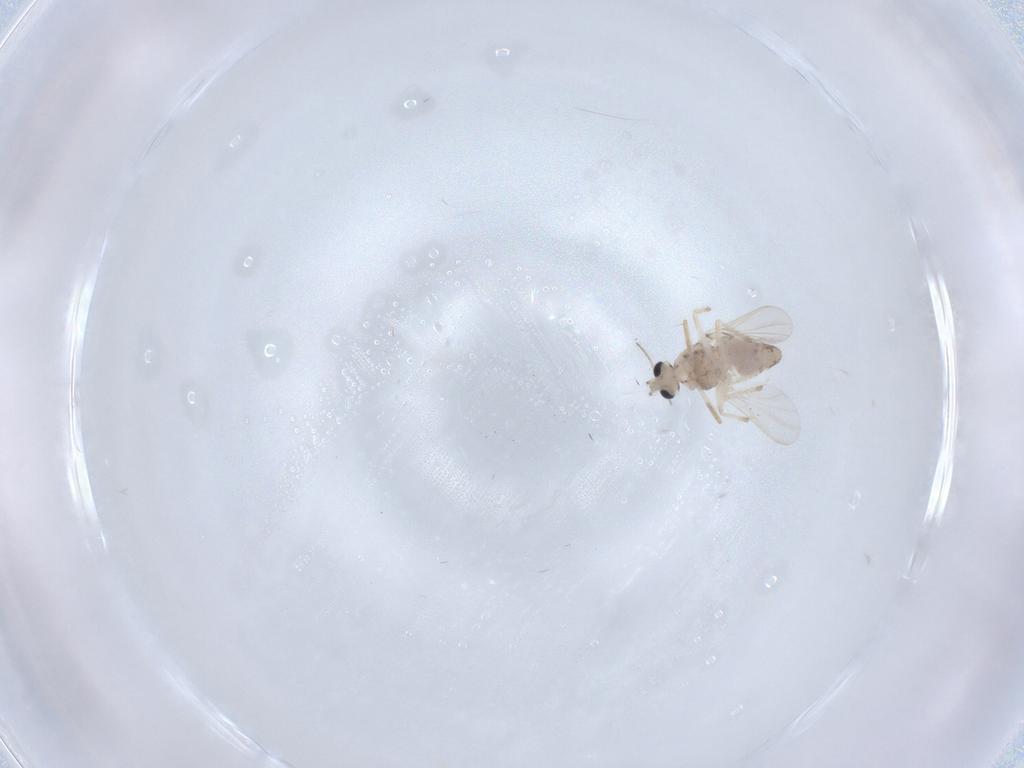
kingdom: Animalia
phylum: Arthropoda
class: Insecta
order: Diptera
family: Chironomidae
